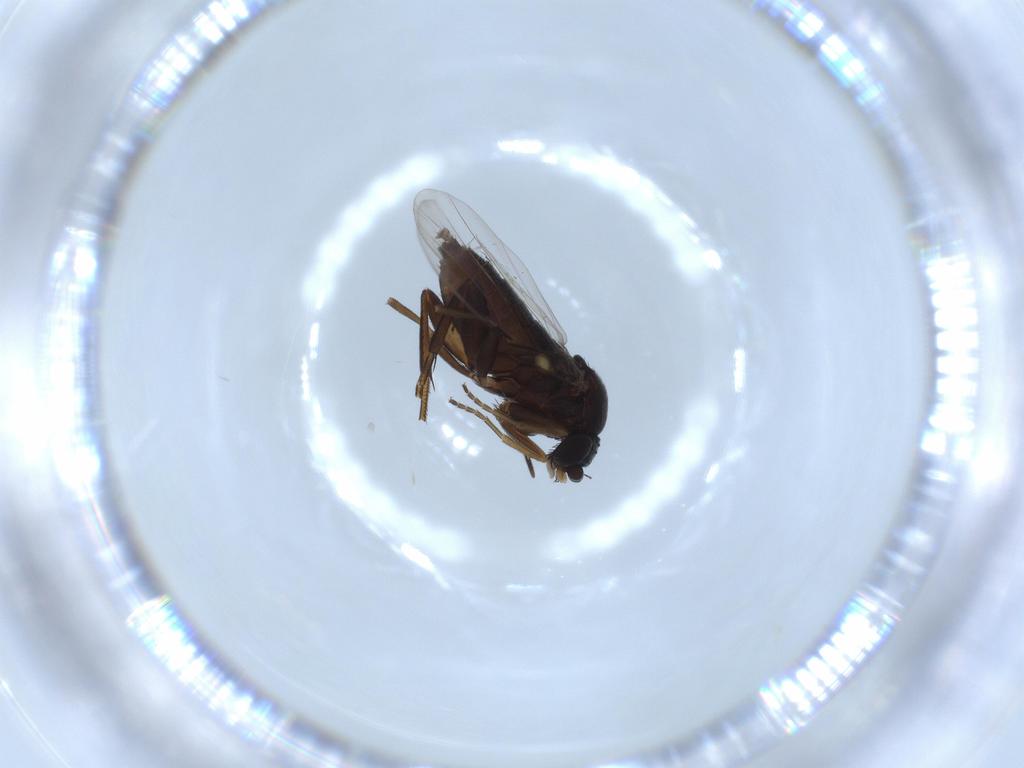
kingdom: Animalia
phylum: Arthropoda
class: Insecta
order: Diptera
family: Phoridae
